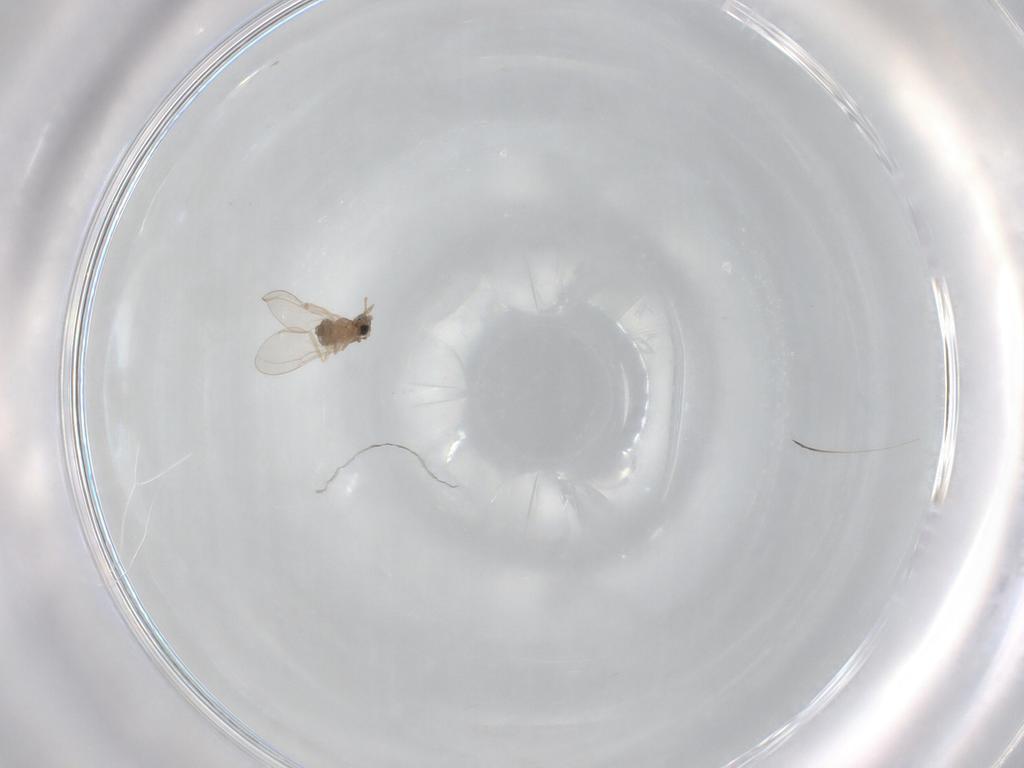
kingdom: Animalia
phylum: Arthropoda
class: Insecta
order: Diptera
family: Cecidomyiidae
